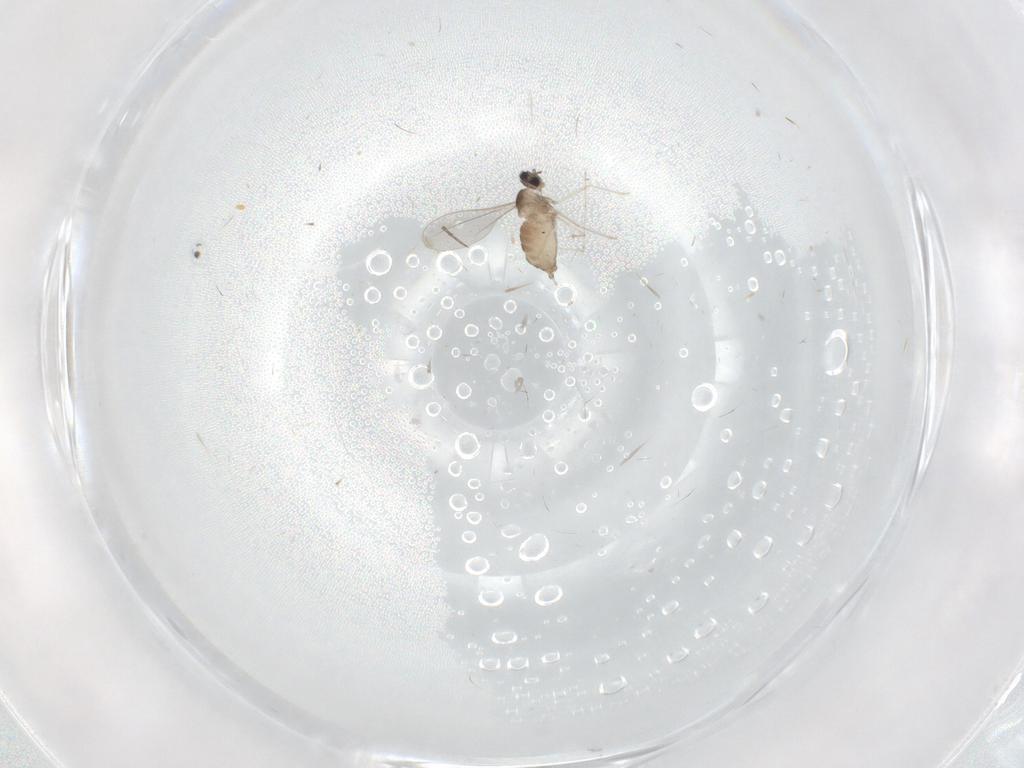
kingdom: Animalia
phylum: Arthropoda
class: Insecta
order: Diptera
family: Cecidomyiidae
